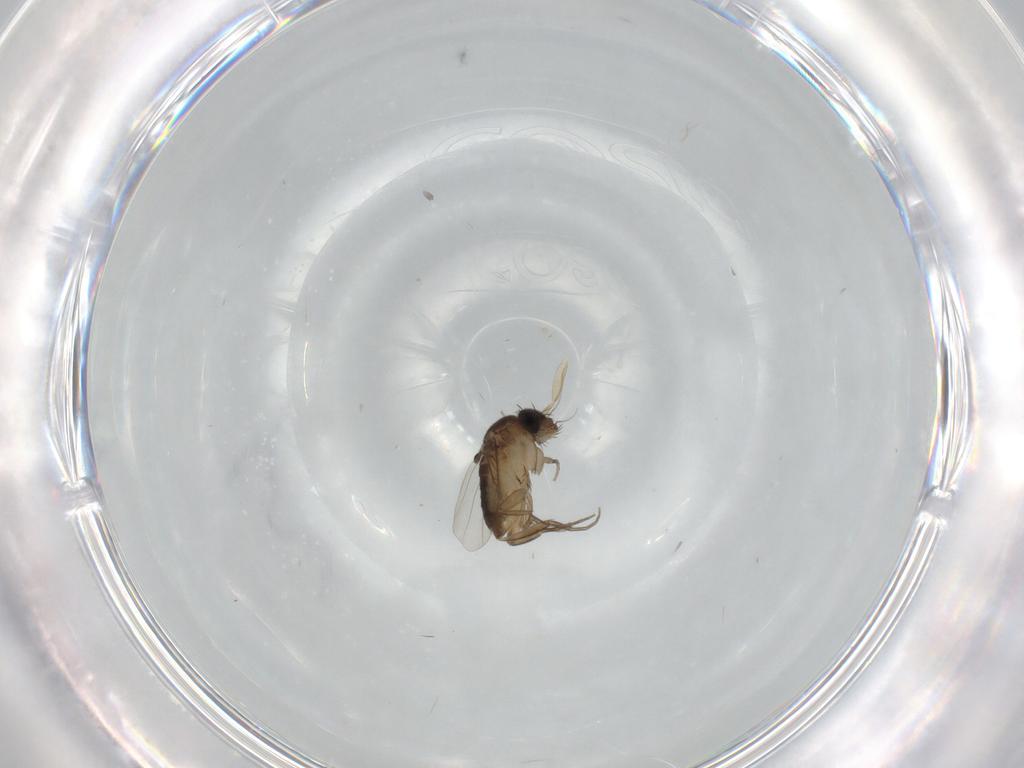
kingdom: Animalia
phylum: Arthropoda
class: Insecta
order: Diptera
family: Phoridae
